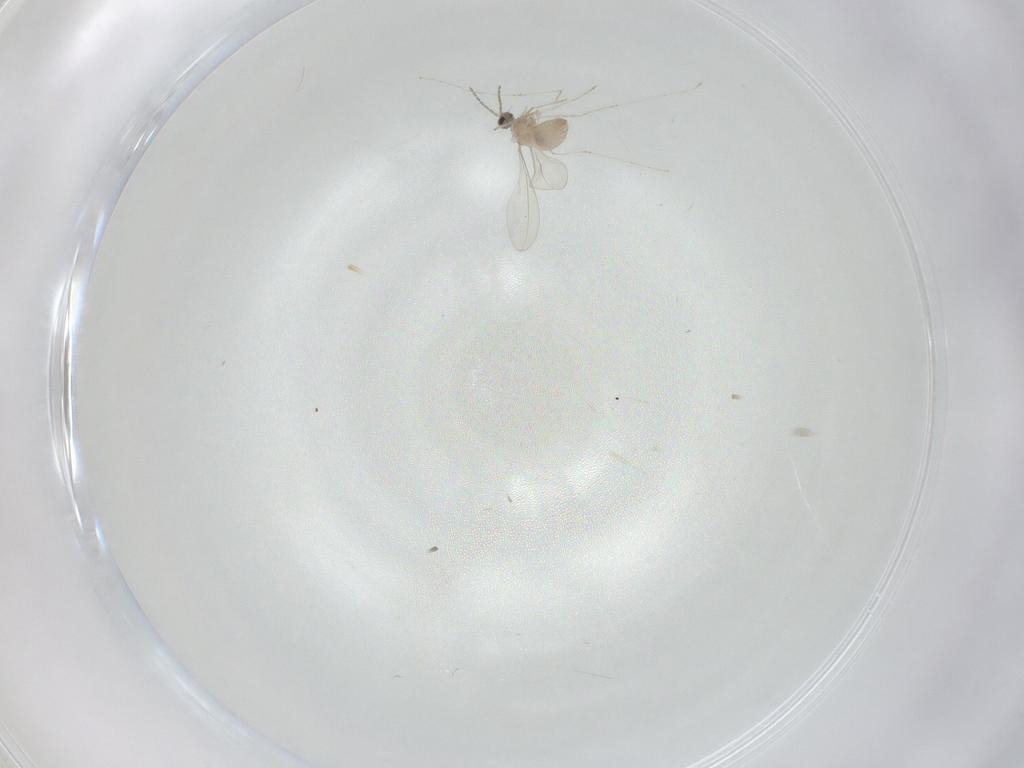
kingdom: Animalia
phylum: Arthropoda
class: Insecta
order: Diptera
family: Cecidomyiidae
